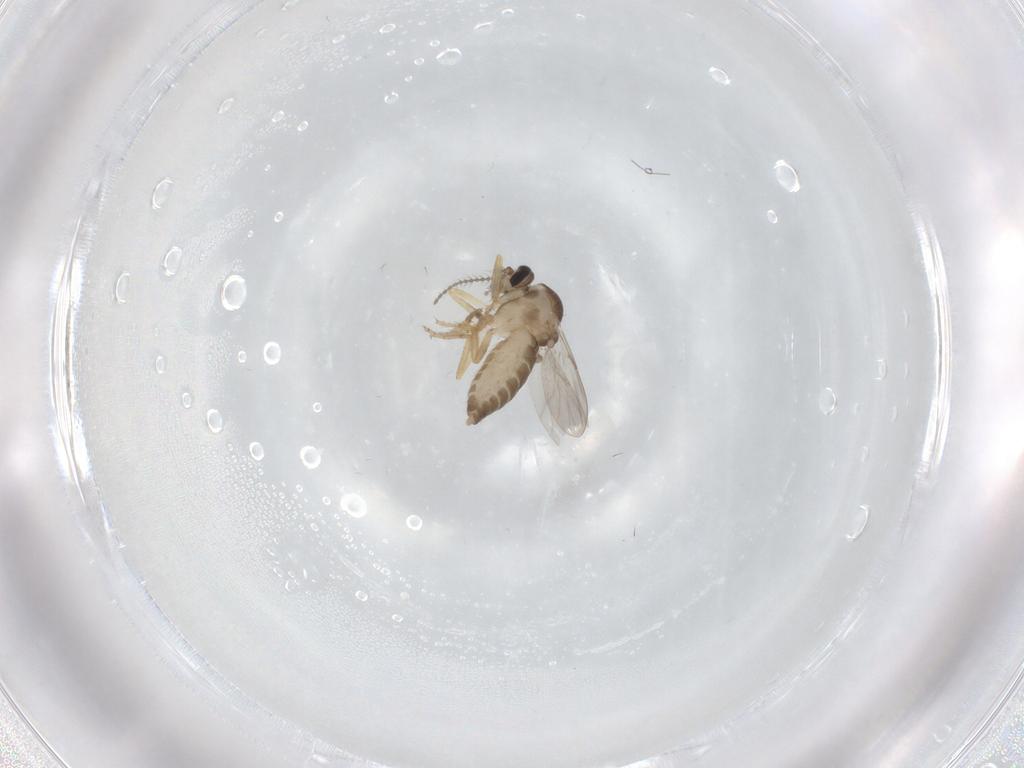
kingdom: Animalia
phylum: Arthropoda
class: Insecta
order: Diptera
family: Ceratopogonidae
